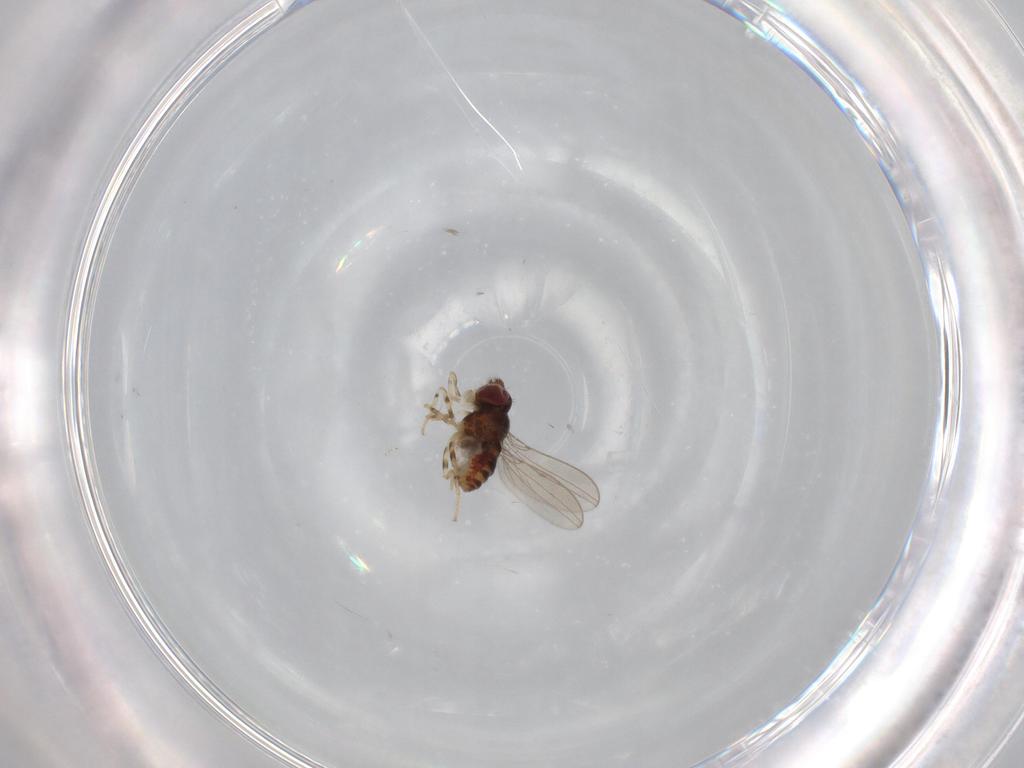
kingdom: Animalia
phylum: Arthropoda
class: Insecta
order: Diptera
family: Asteiidae
